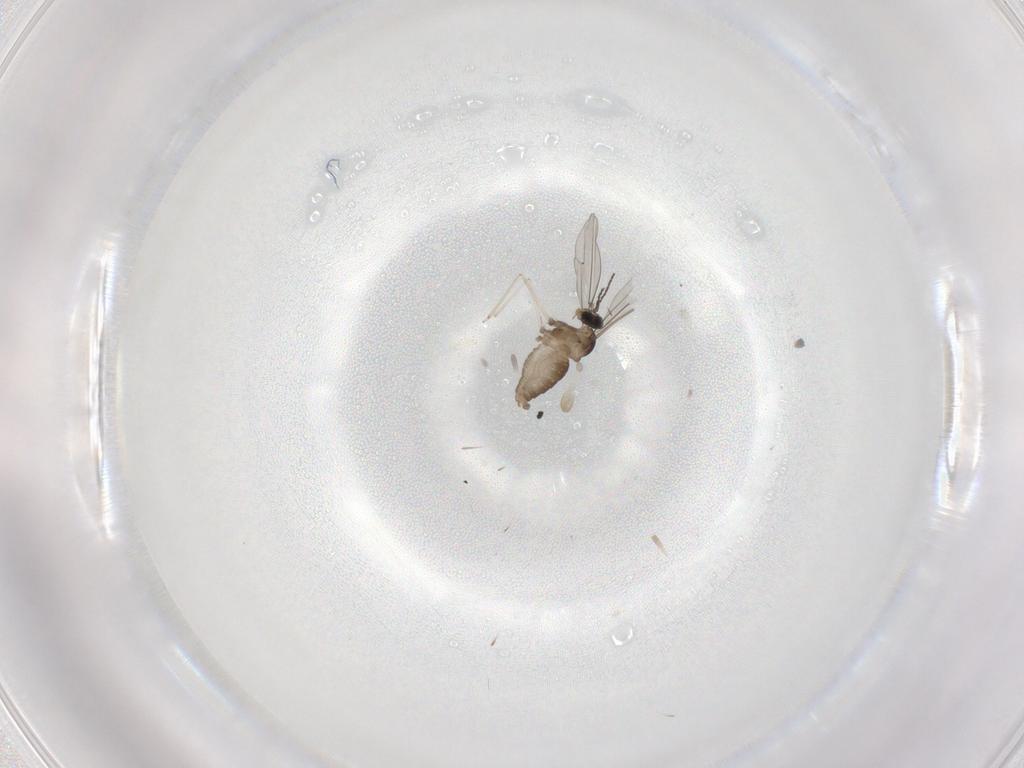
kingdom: Animalia
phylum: Arthropoda
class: Insecta
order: Diptera
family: Cecidomyiidae
